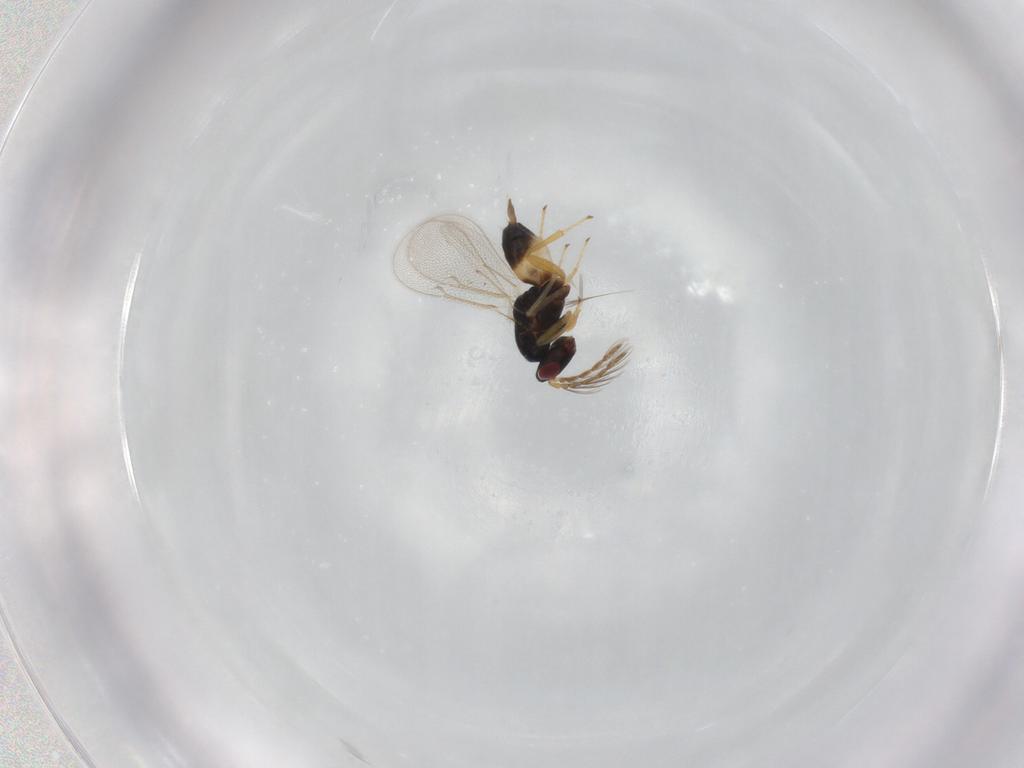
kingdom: Animalia
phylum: Arthropoda
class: Insecta
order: Hymenoptera
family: Eulophidae
